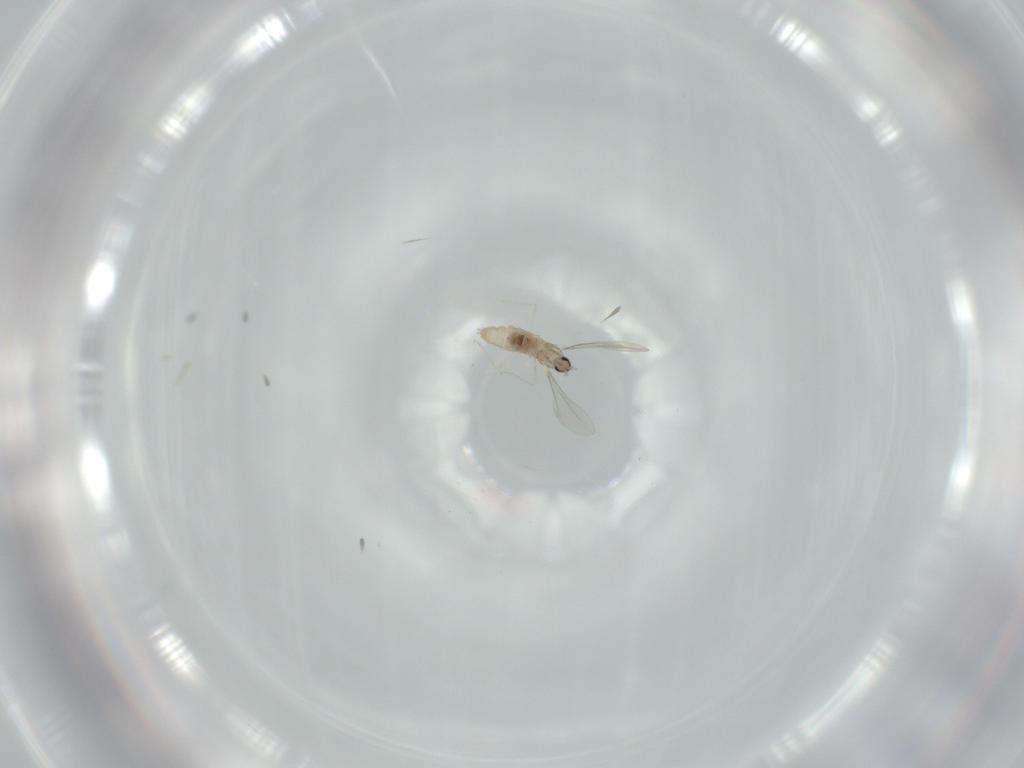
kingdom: Animalia
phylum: Arthropoda
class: Insecta
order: Diptera
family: Cecidomyiidae
